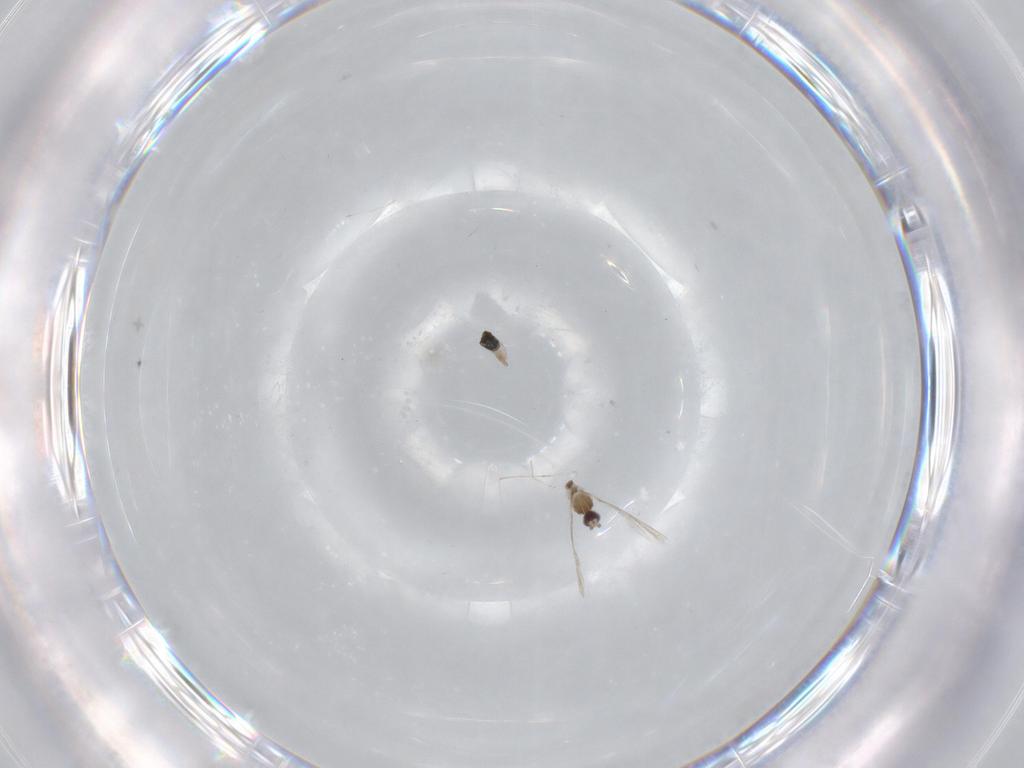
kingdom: Animalia
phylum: Arthropoda
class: Insecta
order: Diptera
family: Cecidomyiidae
